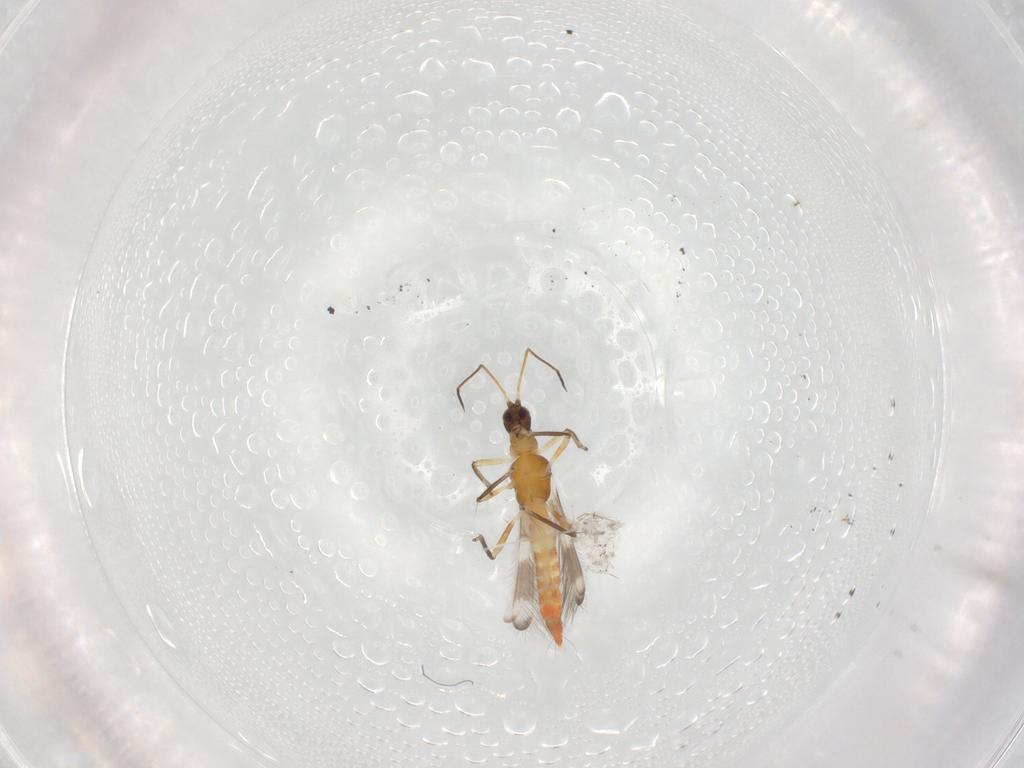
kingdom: Animalia
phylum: Arthropoda
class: Insecta
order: Thysanoptera
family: Aeolothripidae
